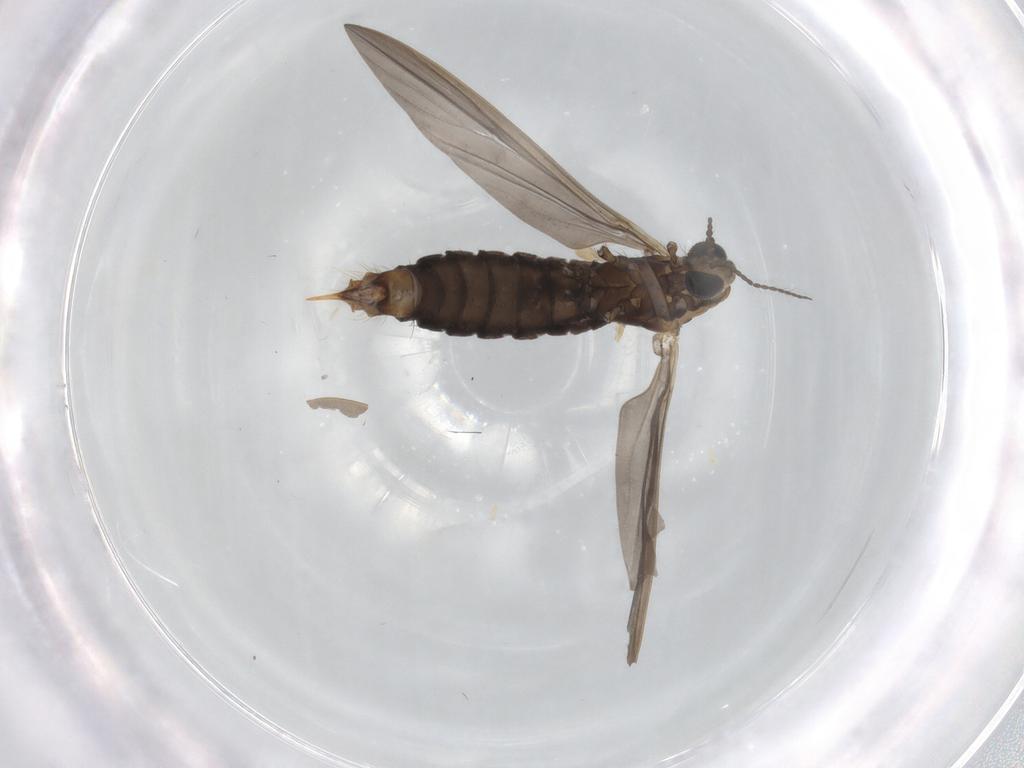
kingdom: Animalia
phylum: Arthropoda
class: Insecta
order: Diptera
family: Limoniidae
